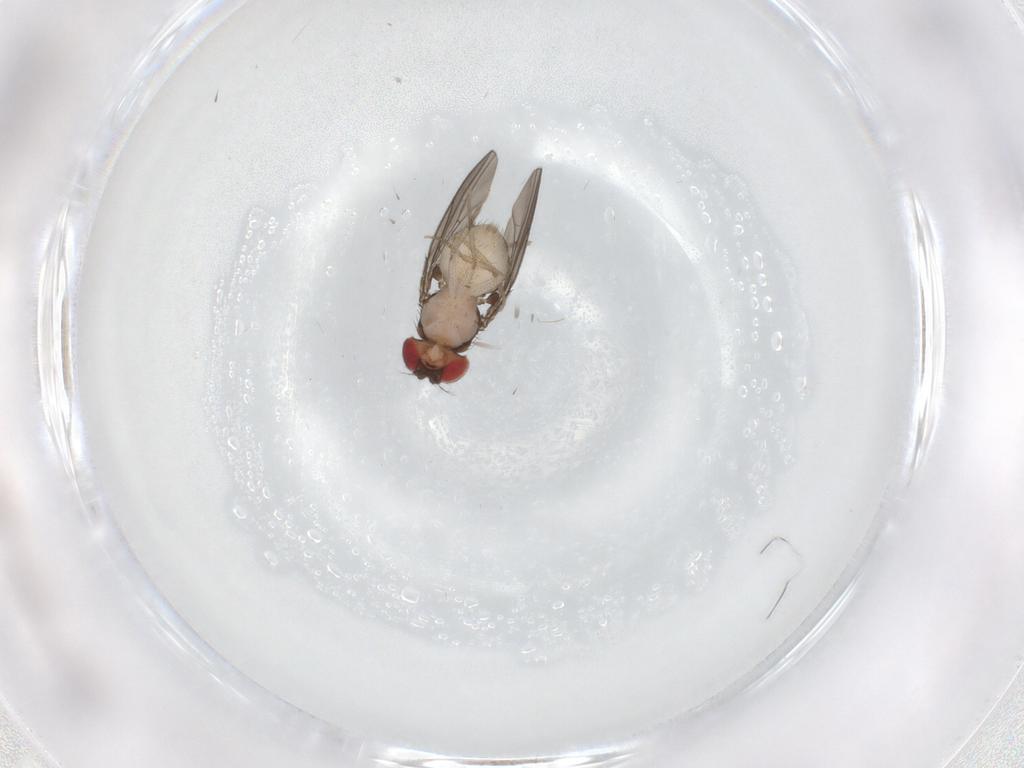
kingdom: Animalia
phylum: Arthropoda
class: Insecta
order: Diptera
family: Drosophilidae
